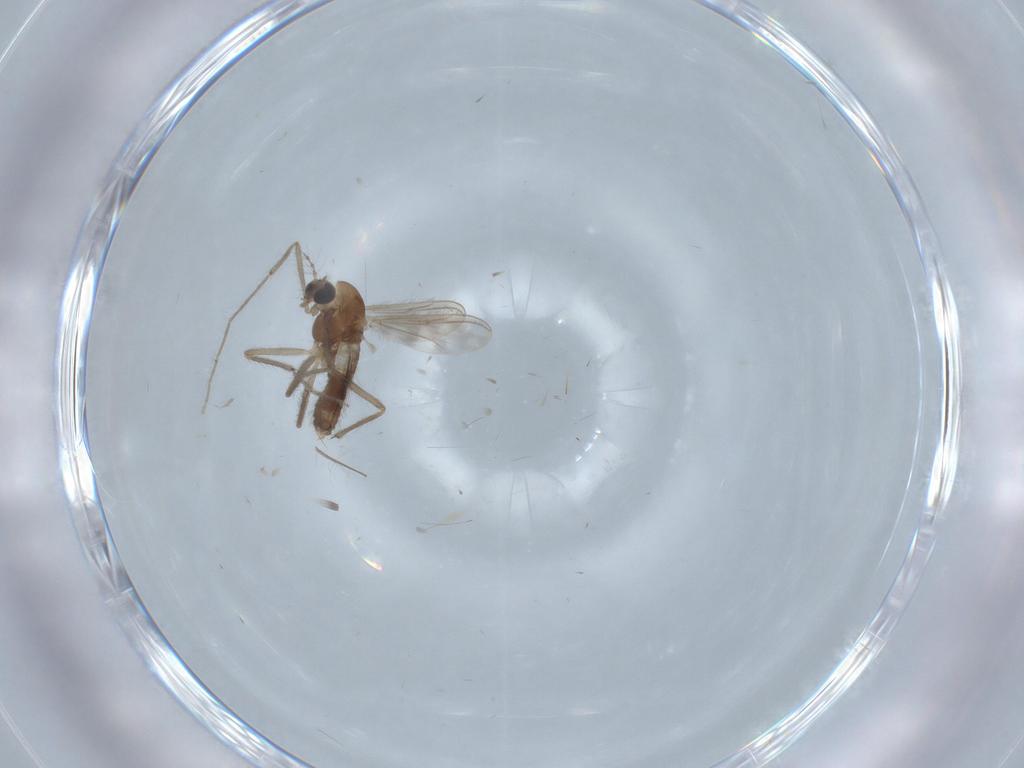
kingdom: Animalia
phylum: Arthropoda
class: Insecta
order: Diptera
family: Chironomidae
